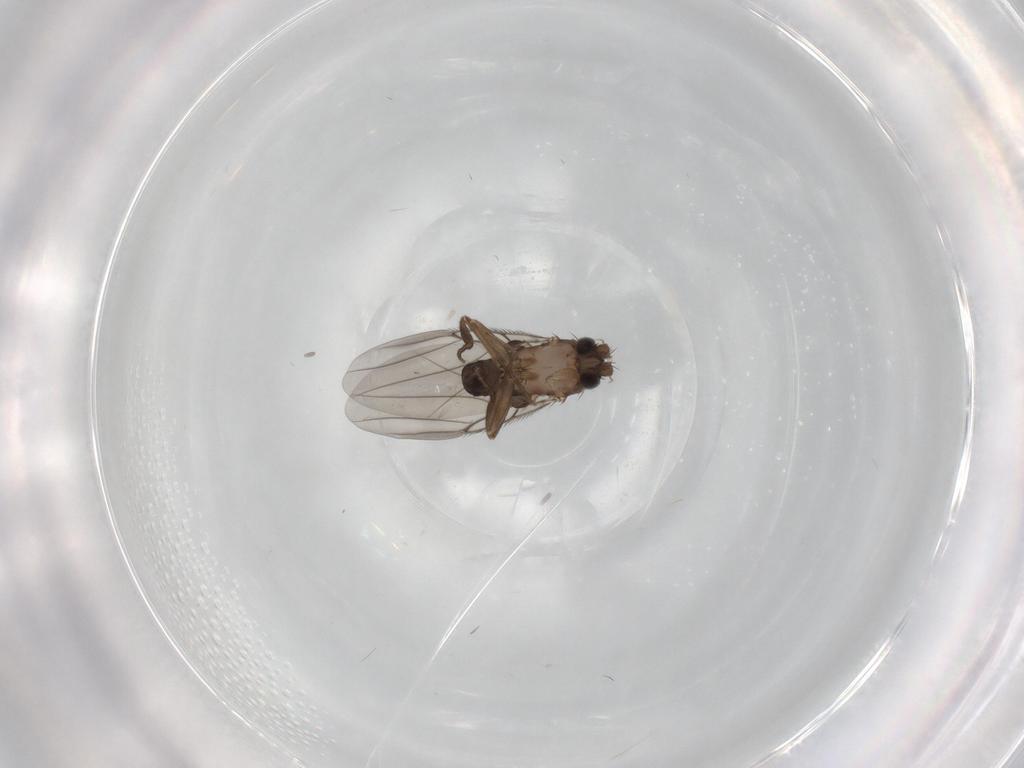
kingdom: Animalia
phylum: Arthropoda
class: Insecta
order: Diptera
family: Phoridae
